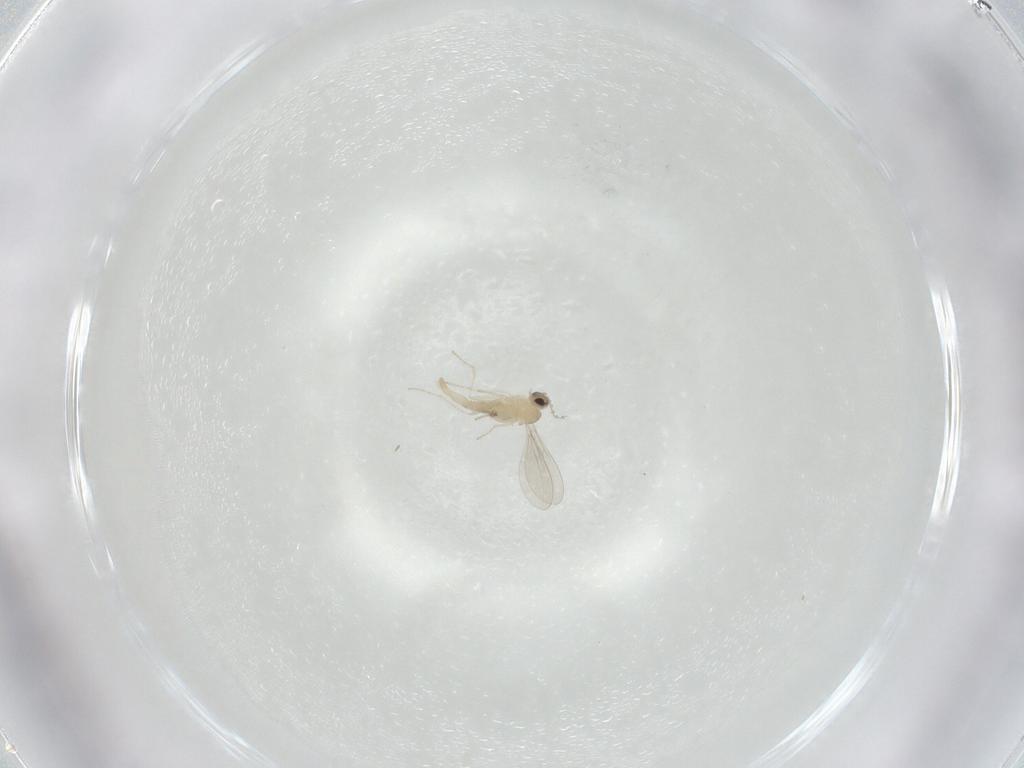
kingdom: Animalia
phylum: Arthropoda
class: Insecta
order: Diptera
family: Cecidomyiidae
